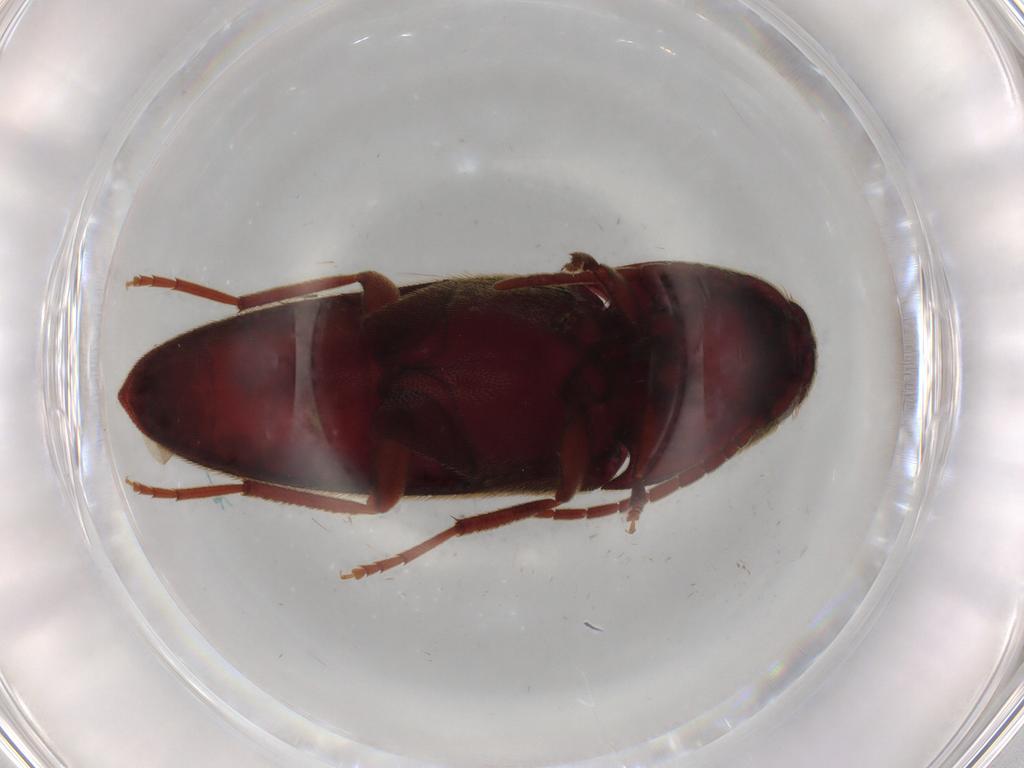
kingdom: Animalia
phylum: Arthropoda
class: Insecta
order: Coleoptera
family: Eucnemidae
